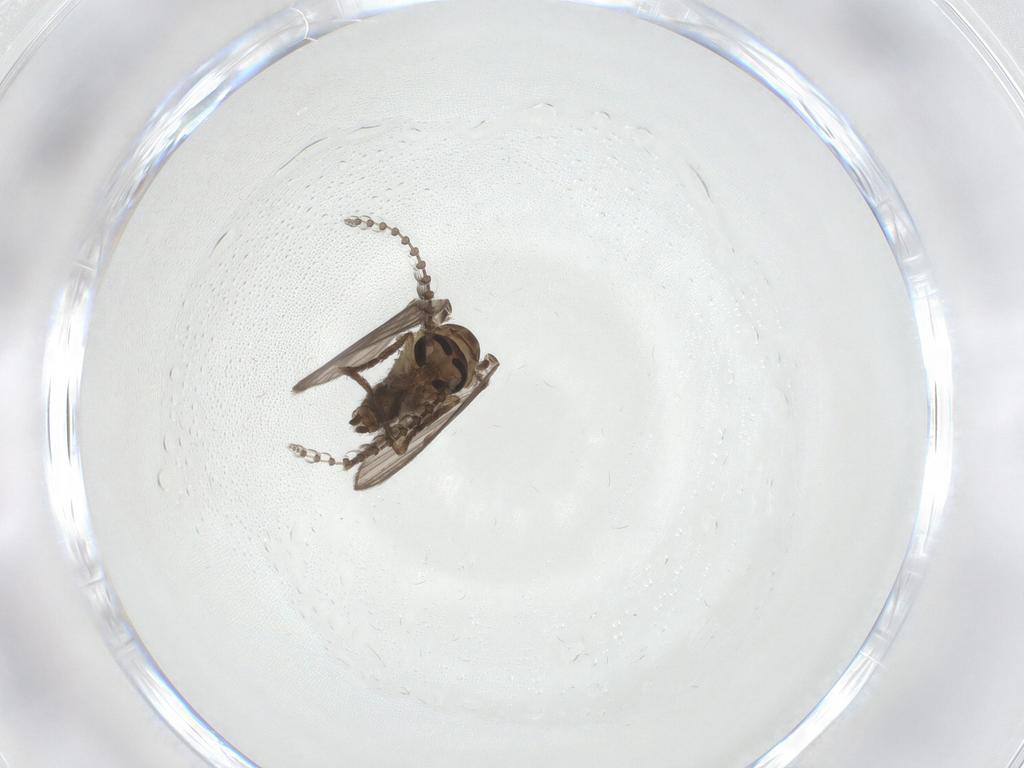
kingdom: Animalia
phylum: Arthropoda
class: Insecta
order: Diptera
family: Psychodidae
